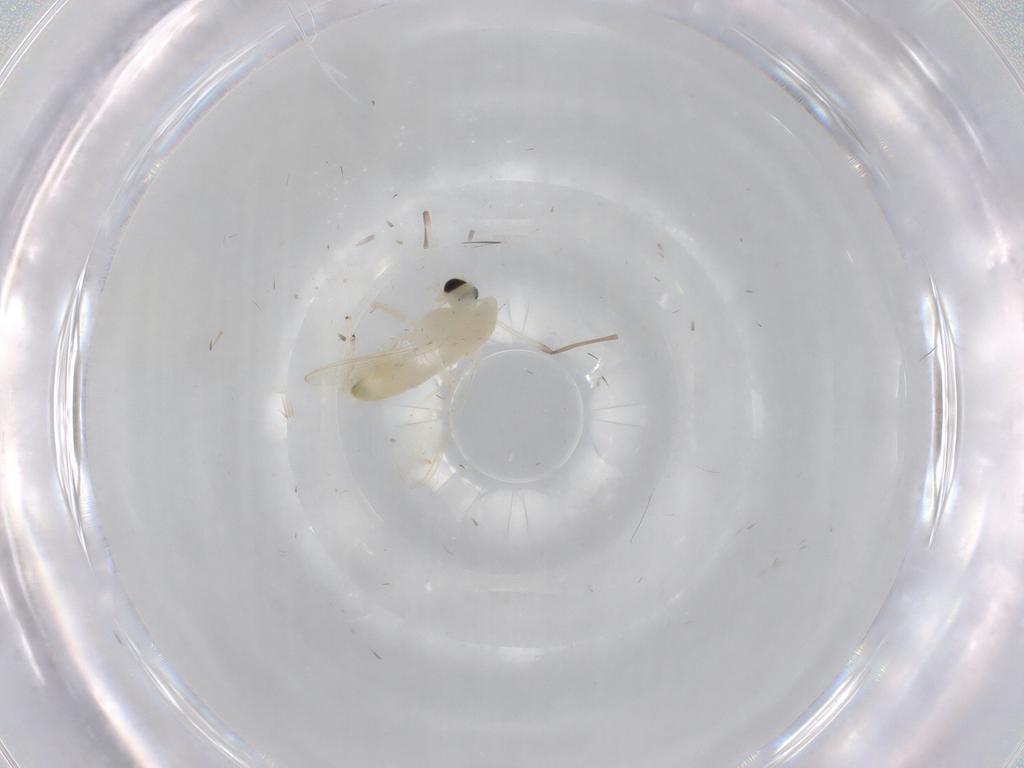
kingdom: Animalia
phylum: Arthropoda
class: Insecta
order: Diptera
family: Chironomidae
